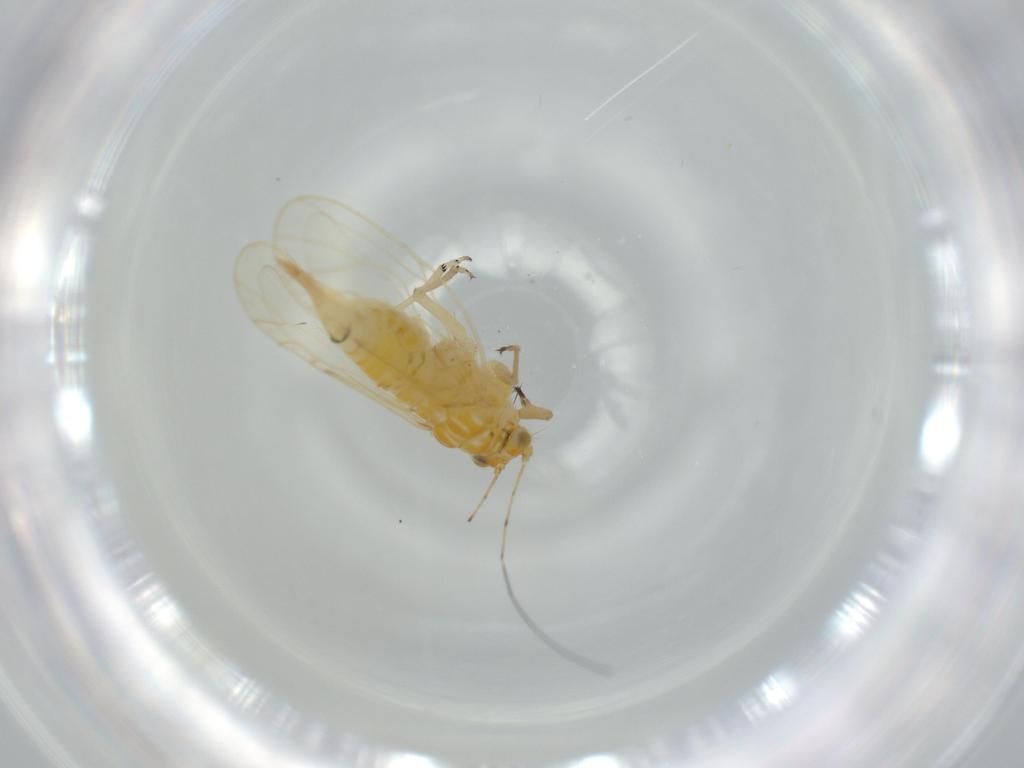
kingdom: Animalia
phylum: Arthropoda
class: Insecta
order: Hemiptera
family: Psyllidae
